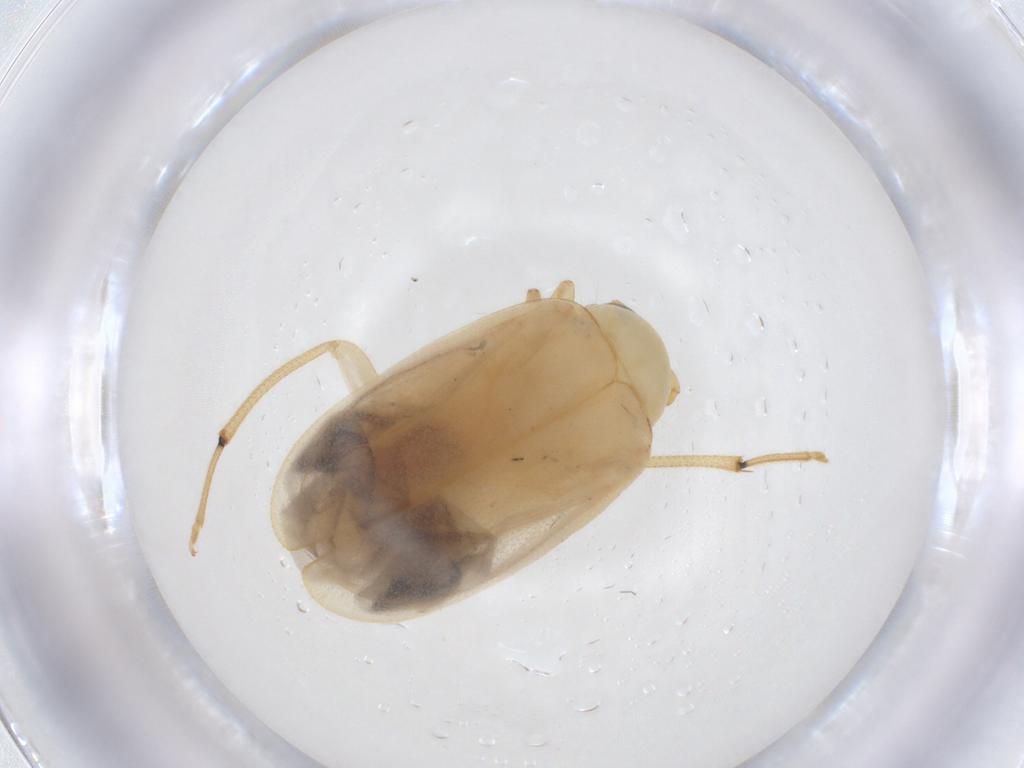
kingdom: Animalia
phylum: Arthropoda
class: Insecta
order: Coleoptera
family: Chrysomelidae
